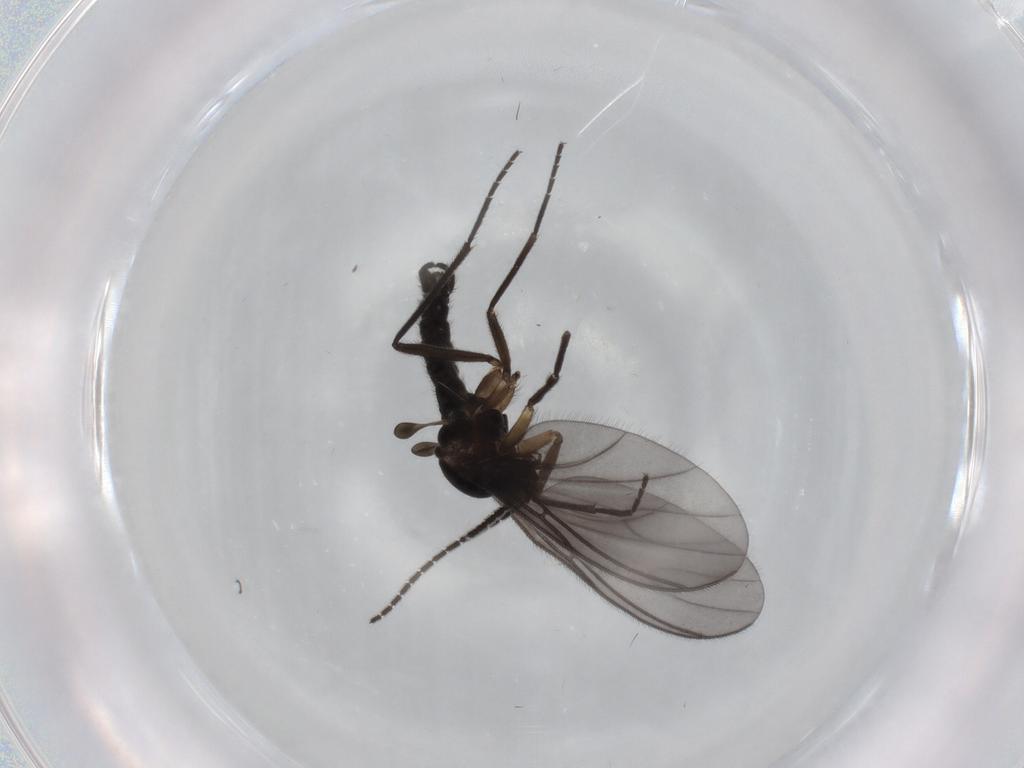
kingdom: Animalia
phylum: Arthropoda
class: Insecta
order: Diptera
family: Sciaridae
